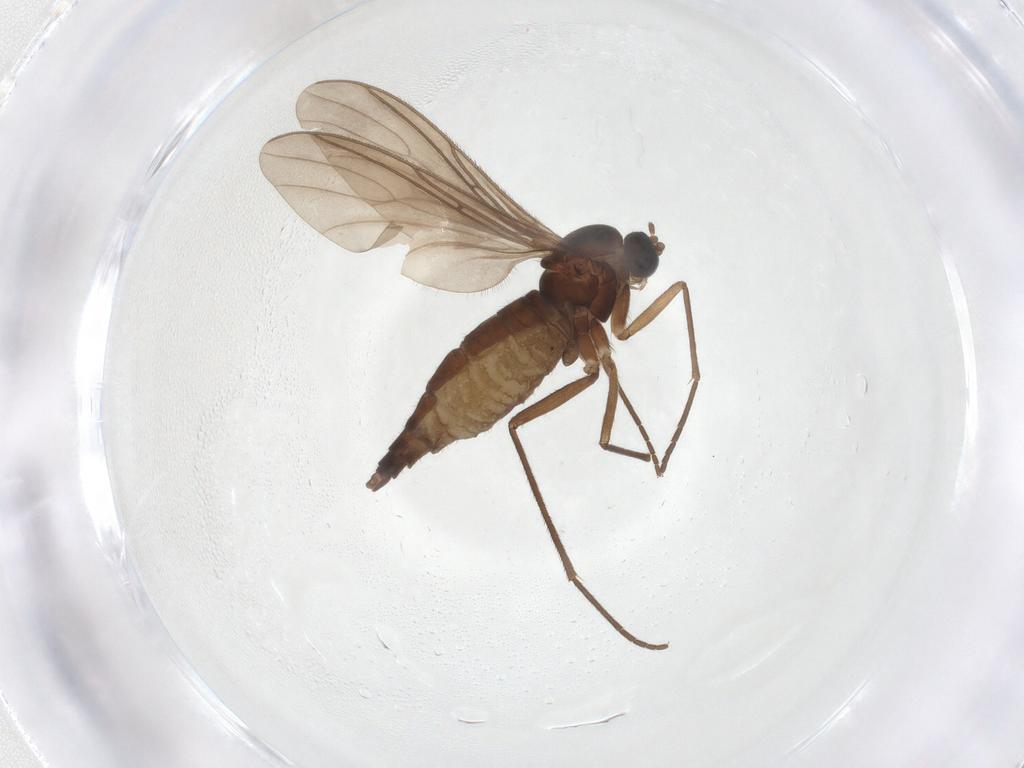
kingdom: Animalia
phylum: Arthropoda
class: Insecta
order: Diptera
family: Sciaridae
